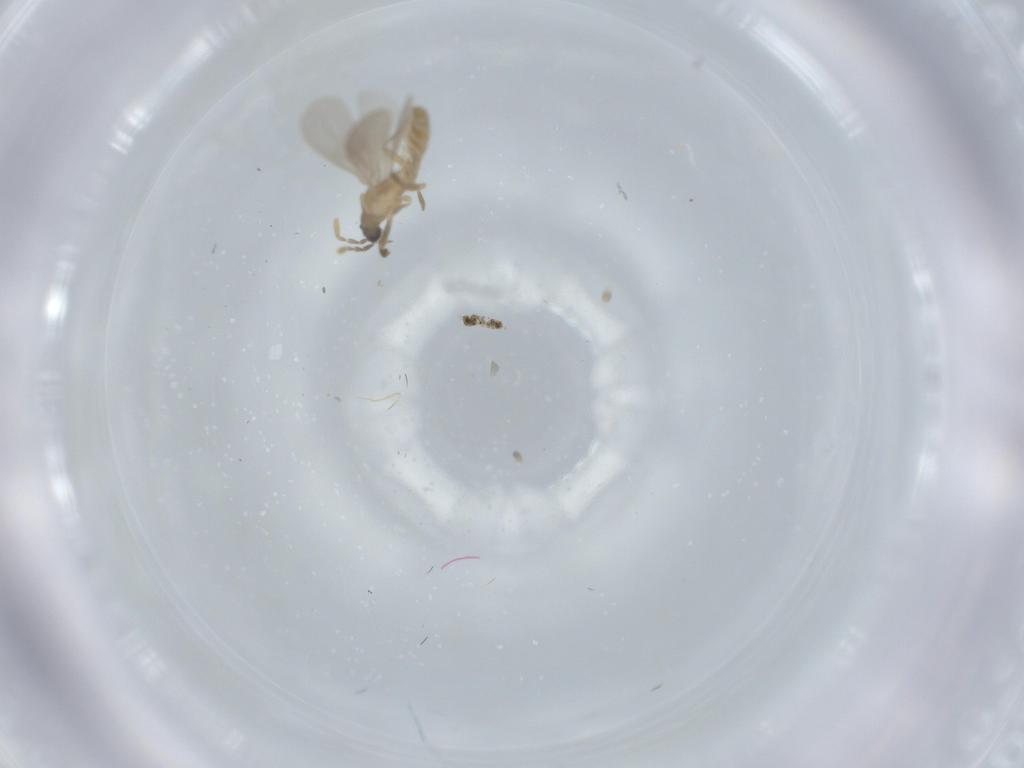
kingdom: Animalia
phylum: Arthropoda
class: Insecta
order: Hemiptera
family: Enicocephalidae
